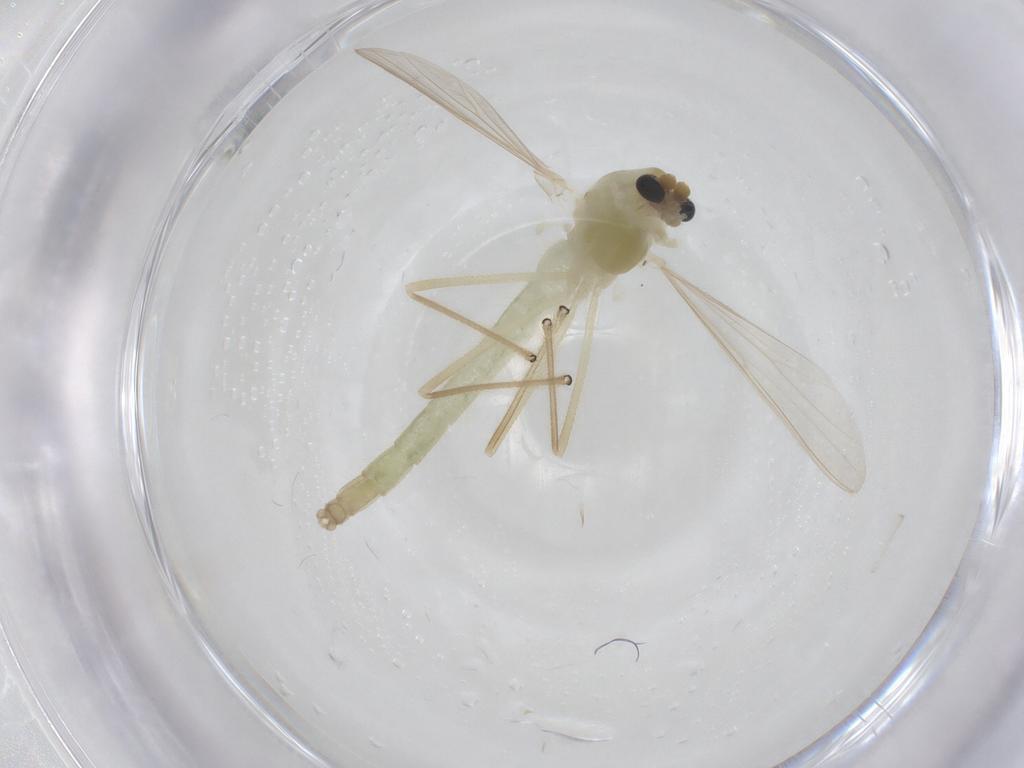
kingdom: Animalia
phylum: Arthropoda
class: Insecta
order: Diptera
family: Chironomidae
